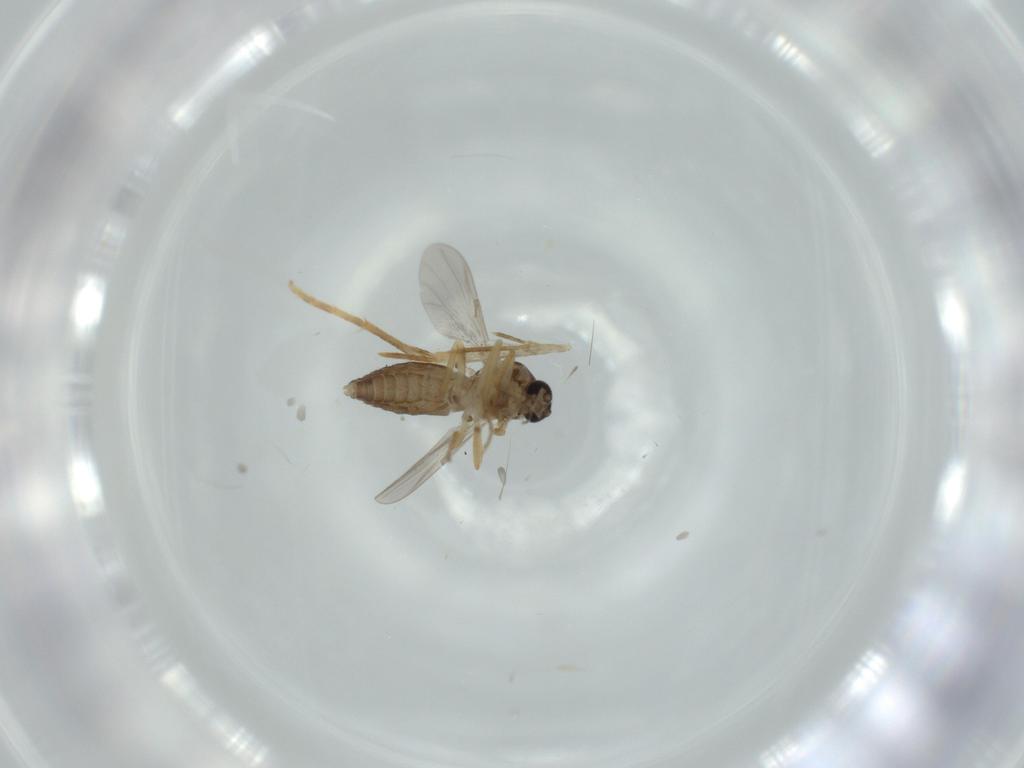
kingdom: Animalia
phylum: Arthropoda
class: Insecta
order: Diptera
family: Ceratopogonidae
